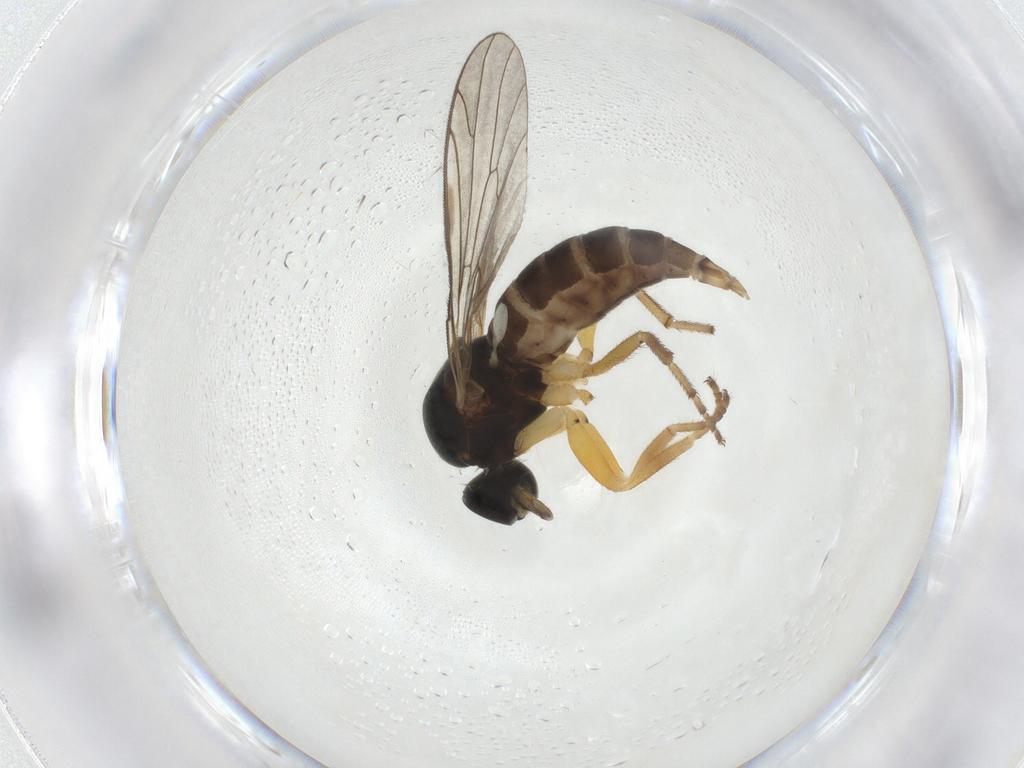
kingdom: Animalia
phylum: Arthropoda
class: Insecta
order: Diptera
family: Empididae
